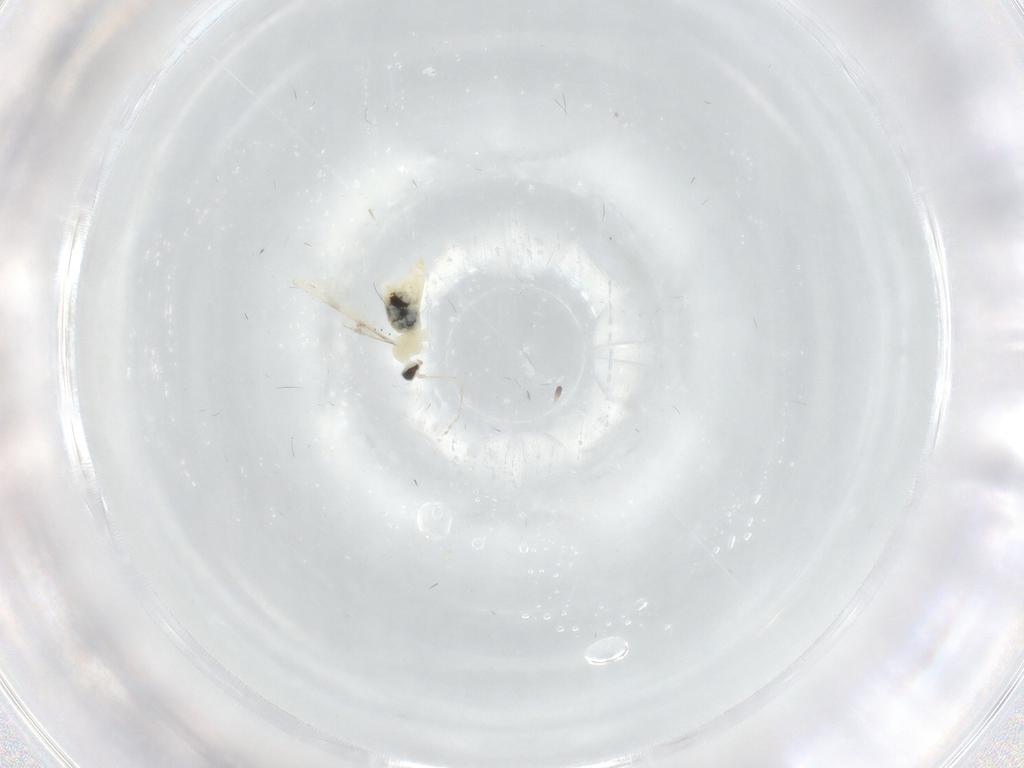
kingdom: Animalia
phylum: Arthropoda
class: Insecta
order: Diptera
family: Cecidomyiidae
